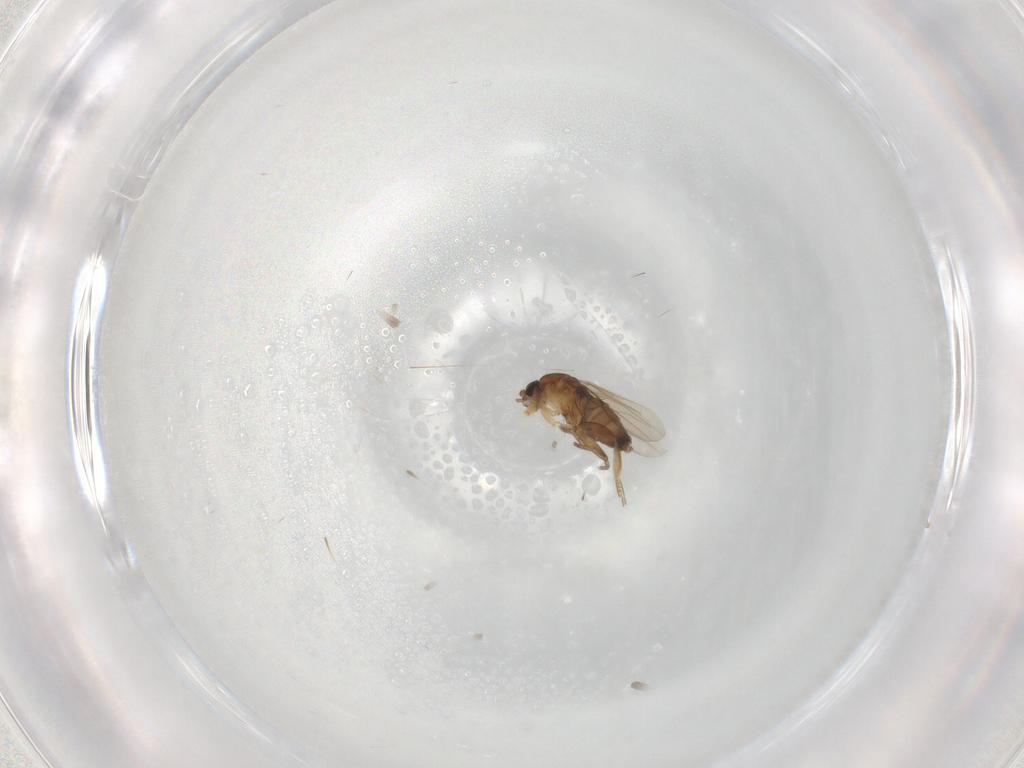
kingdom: Animalia
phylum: Arthropoda
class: Insecta
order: Diptera
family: Phoridae
